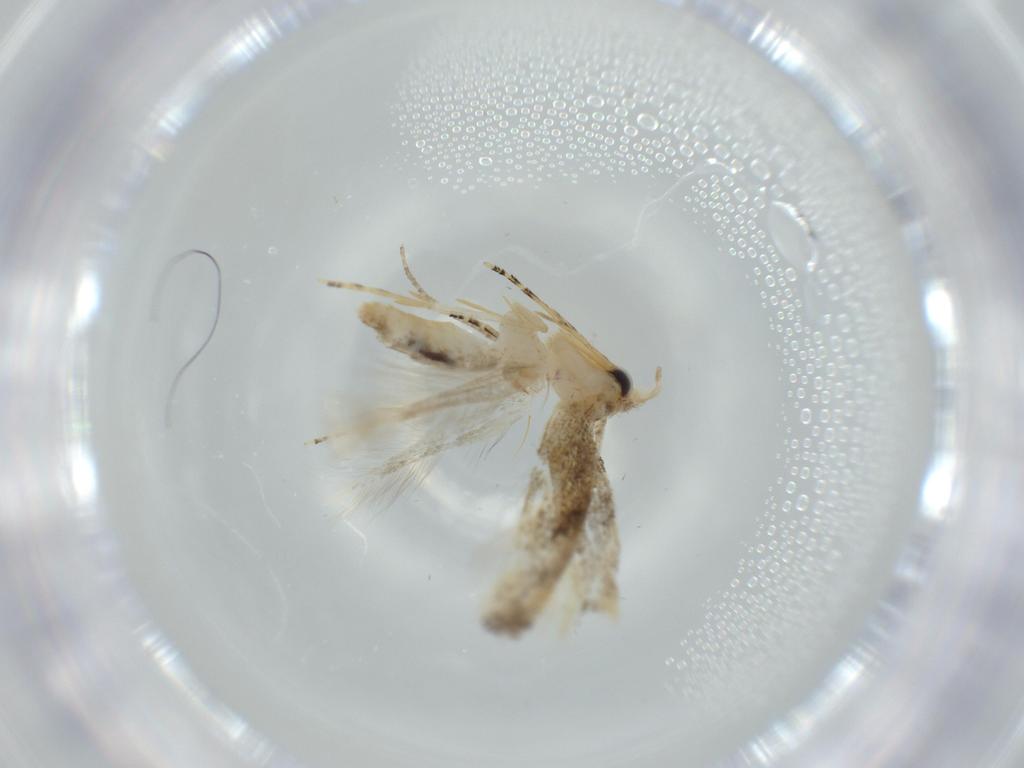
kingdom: Animalia
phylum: Arthropoda
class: Insecta
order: Lepidoptera
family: Bucculatricidae
